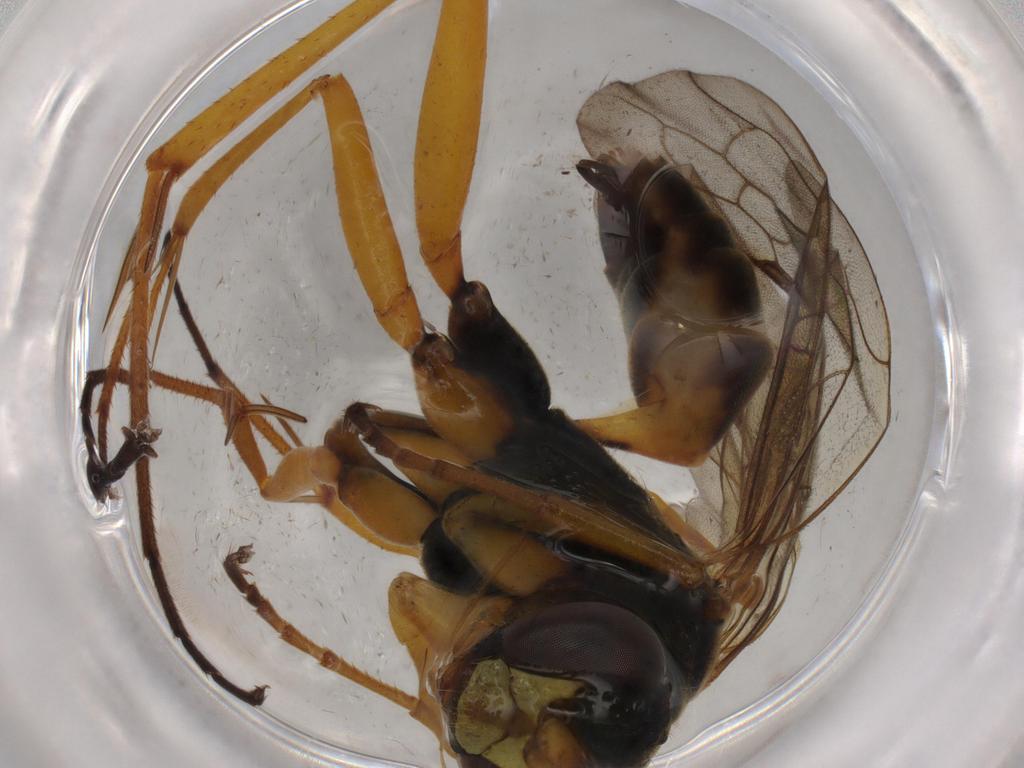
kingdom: Animalia
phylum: Arthropoda
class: Insecta
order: Hymenoptera
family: Pompilidae
